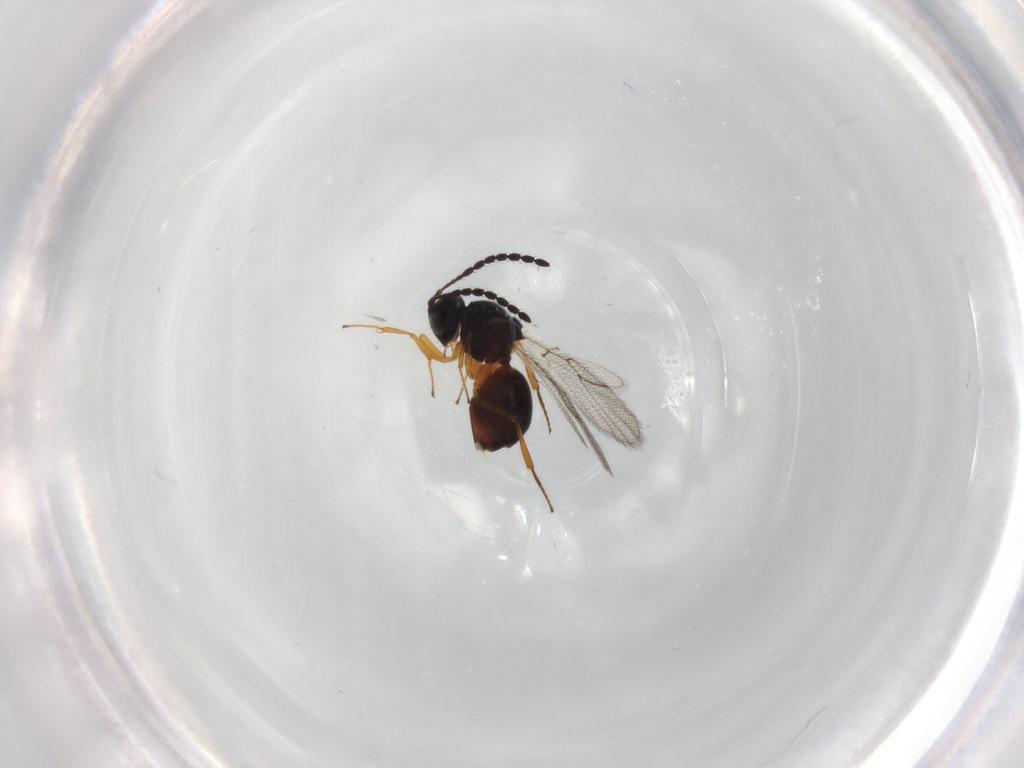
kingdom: Animalia
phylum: Arthropoda
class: Insecta
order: Hymenoptera
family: Figitidae
